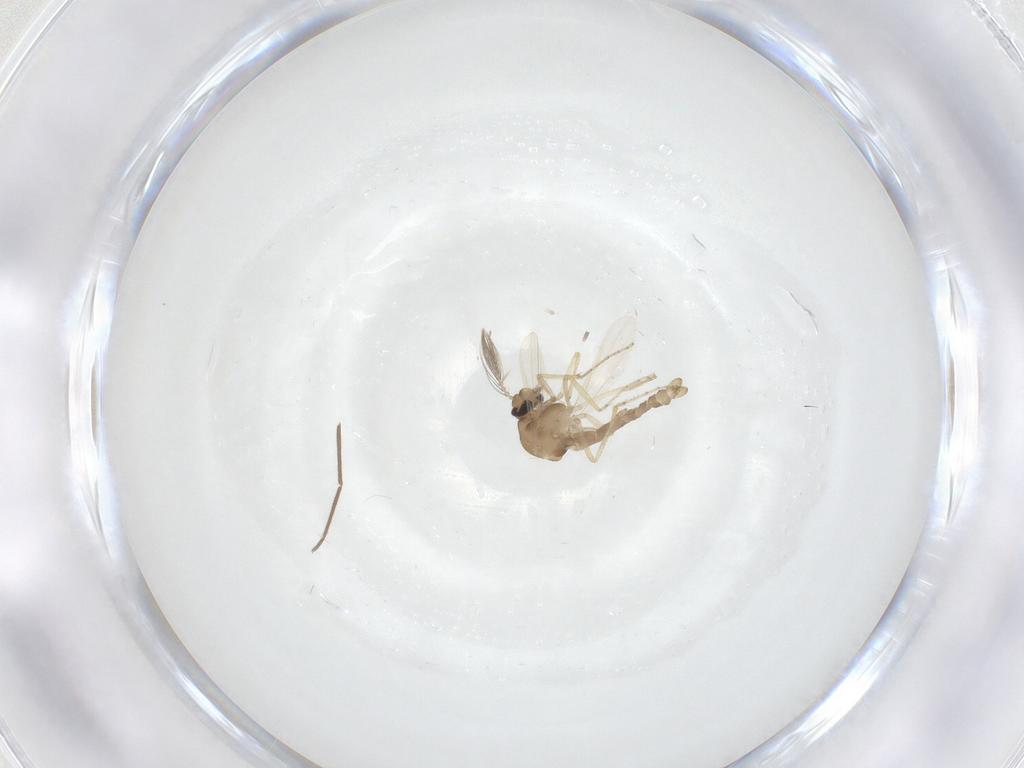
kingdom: Animalia
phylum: Arthropoda
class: Insecta
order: Diptera
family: Ceratopogonidae
